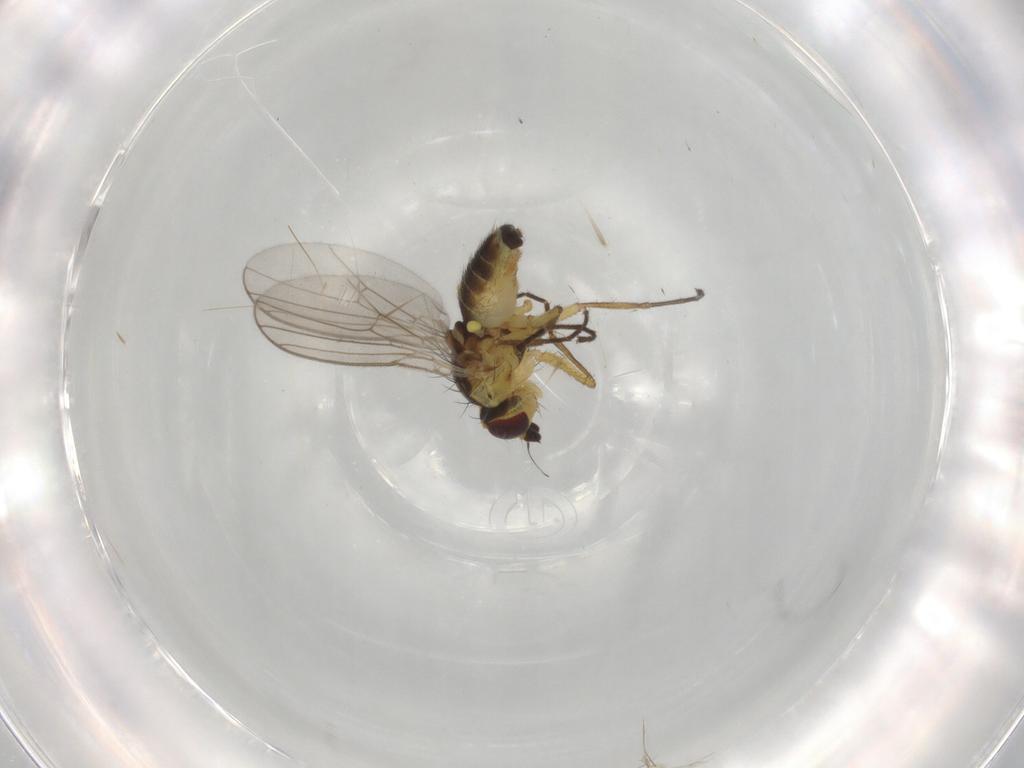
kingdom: Animalia
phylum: Arthropoda
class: Insecta
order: Diptera
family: Agromyzidae
